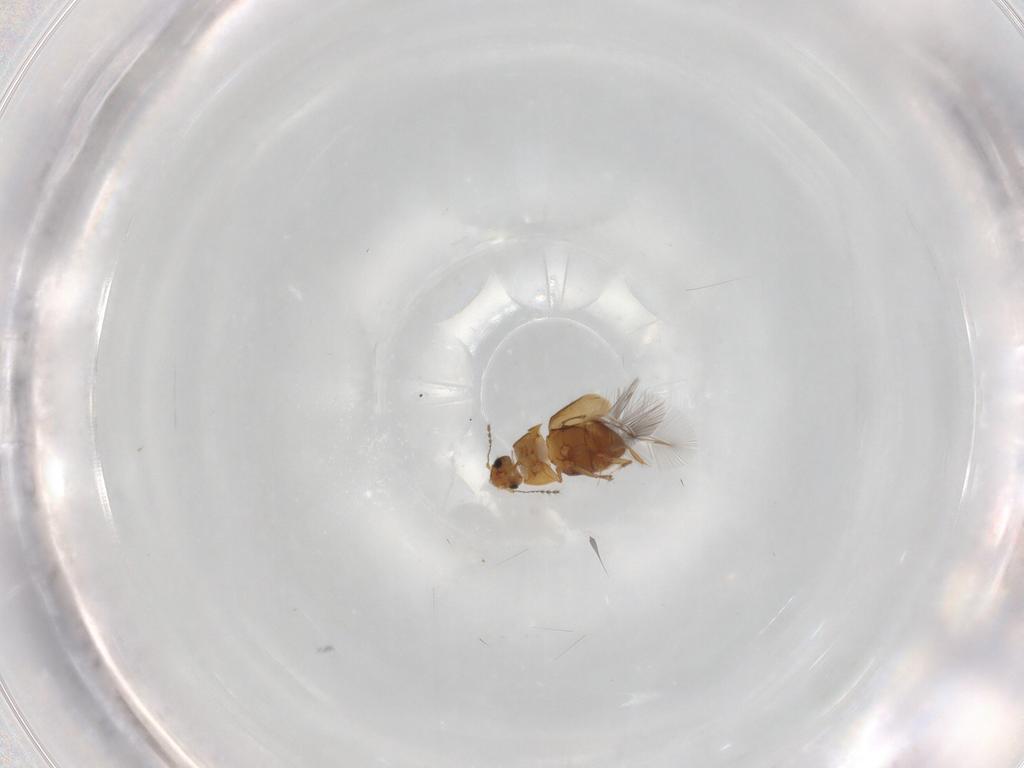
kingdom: Animalia
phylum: Arthropoda
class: Insecta
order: Coleoptera
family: Ptiliidae
